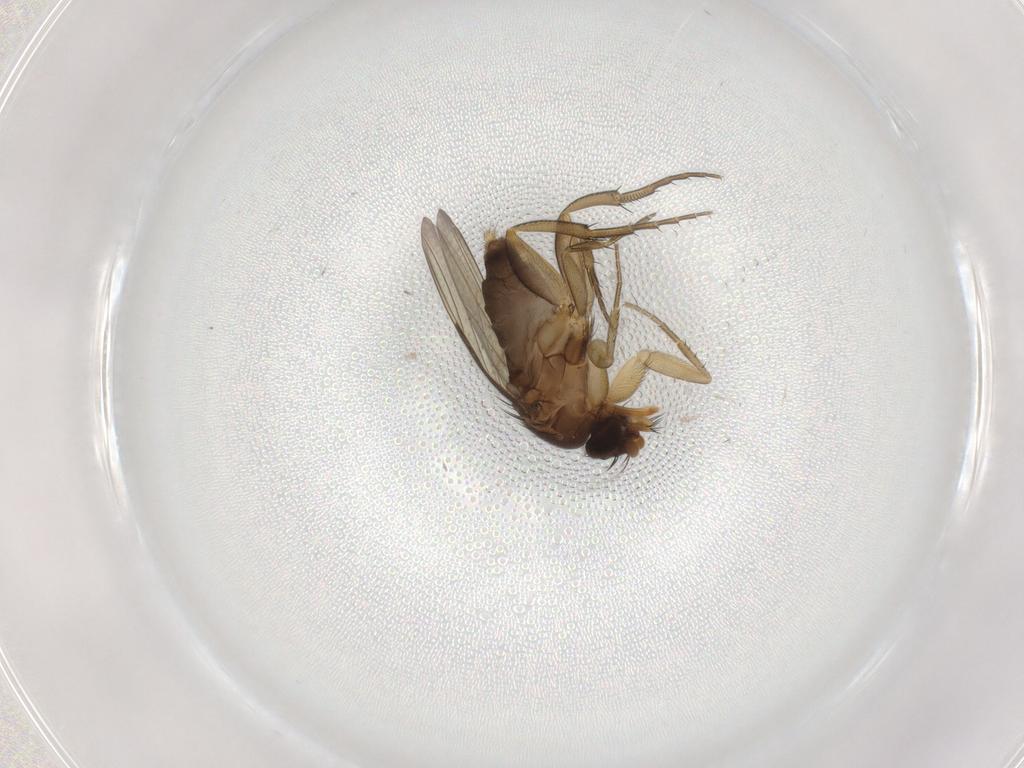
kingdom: Animalia
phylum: Arthropoda
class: Insecta
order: Diptera
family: Phoridae
